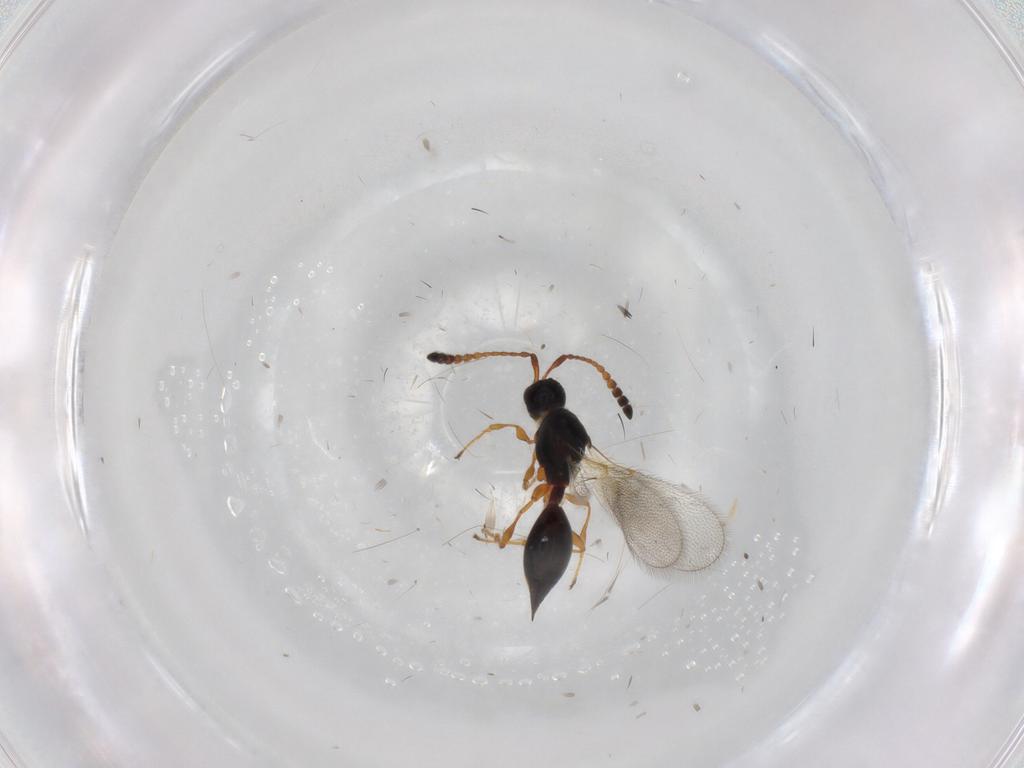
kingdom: Animalia
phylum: Arthropoda
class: Insecta
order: Hymenoptera
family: Diapriidae
